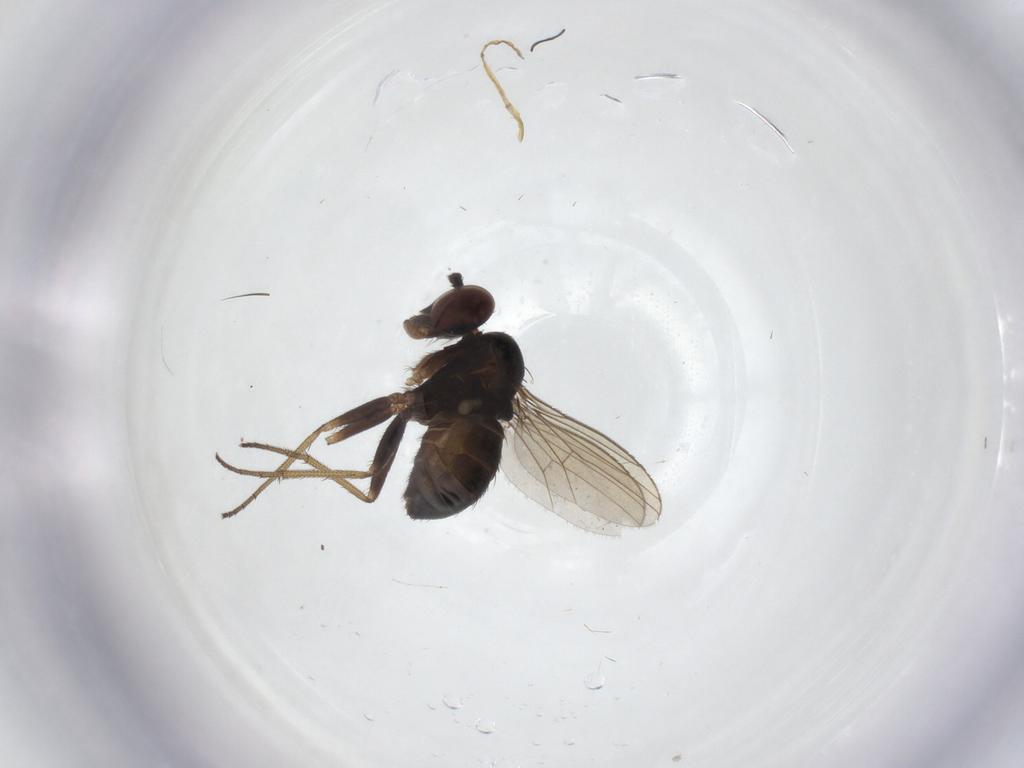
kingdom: Animalia
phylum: Arthropoda
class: Insecta
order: Diptera
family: Dolichopodidae
